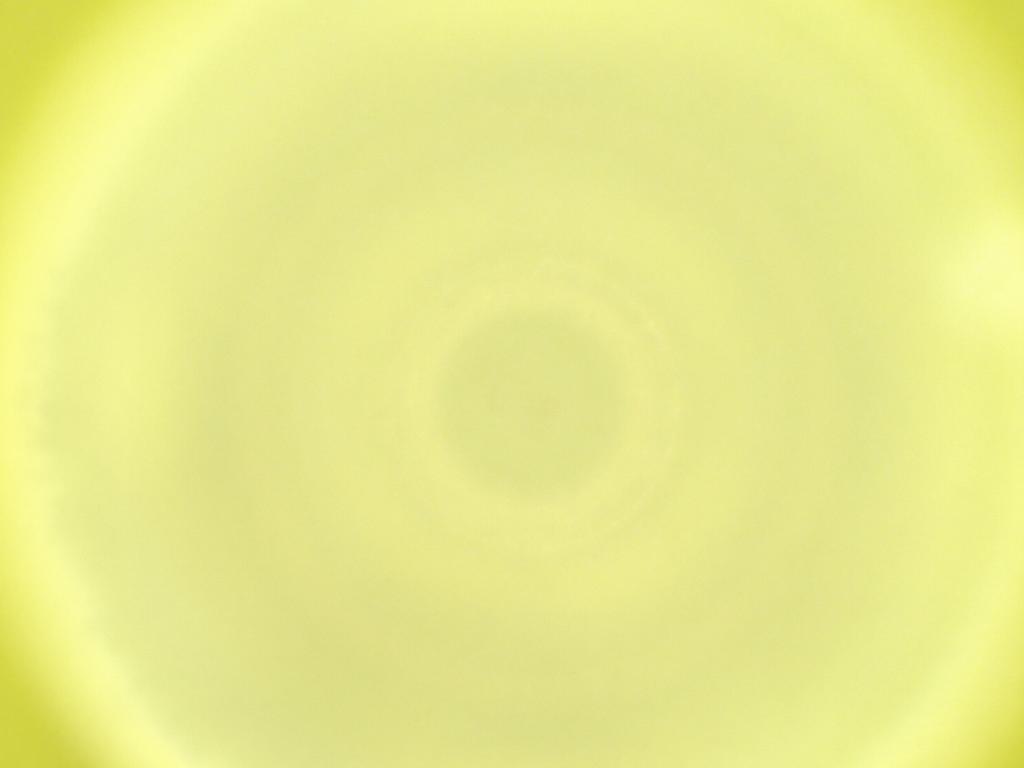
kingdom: Animalia
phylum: Arthropoda
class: Insecta
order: Diptera
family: Cecidomyiidae
